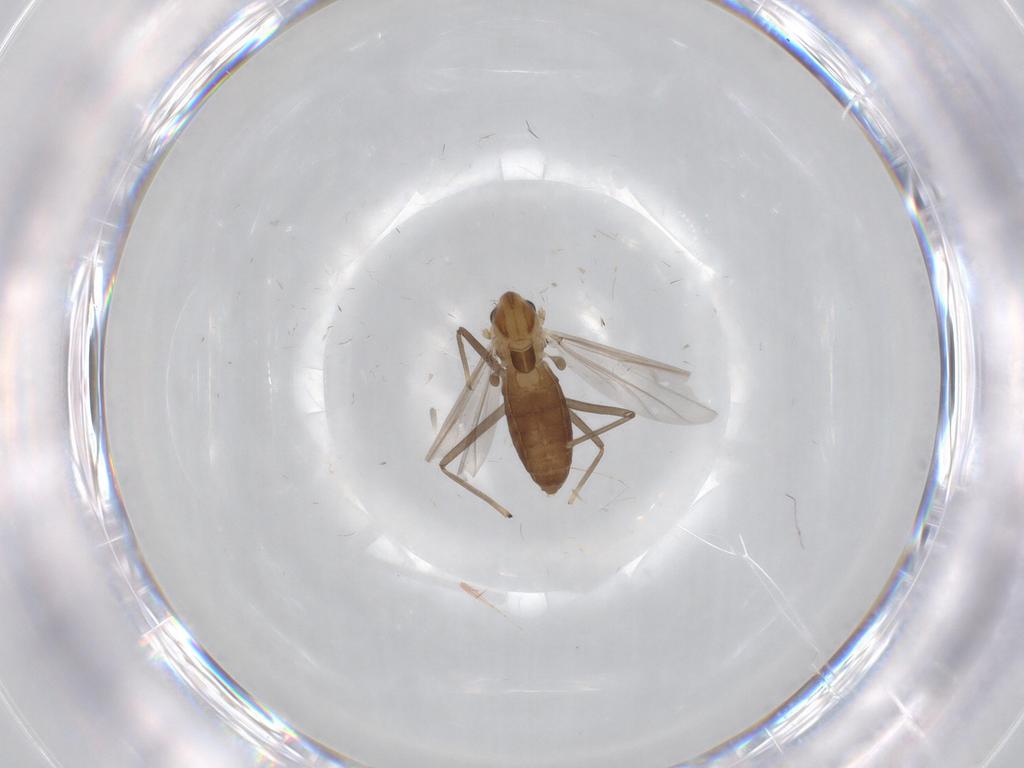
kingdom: Animalia
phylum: Arthropoda
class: Insecta
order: Diptera
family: Chironomidae
